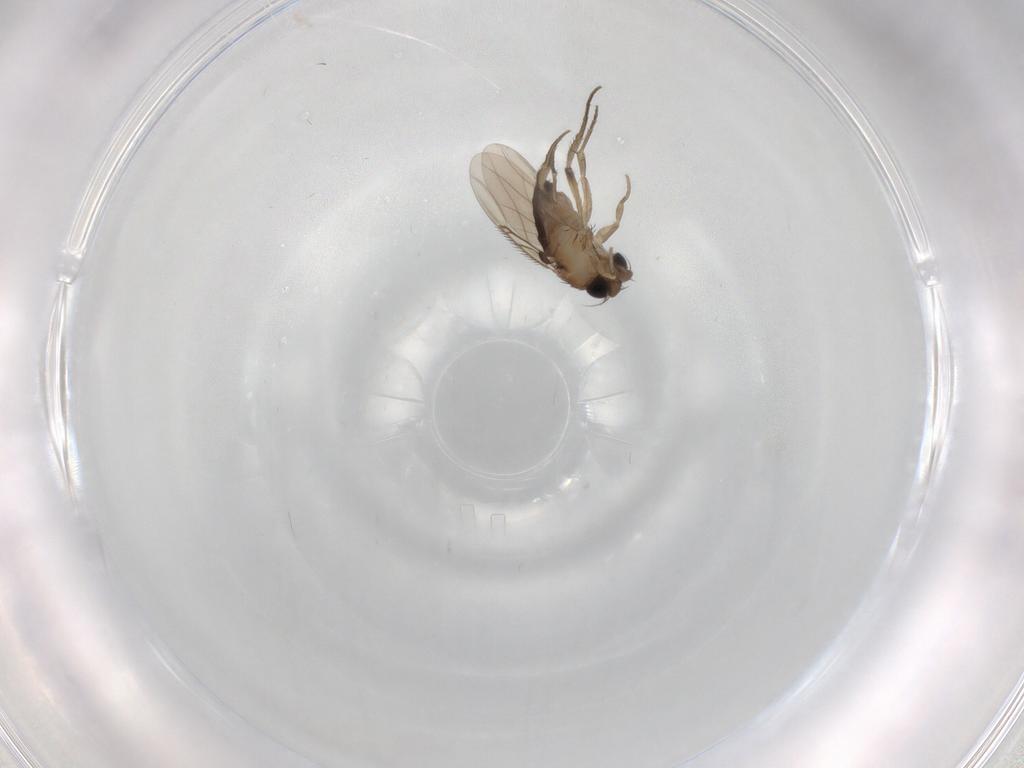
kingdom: Animalia
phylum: Arthropoda
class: Insecta
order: Diptera
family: Phoridae
